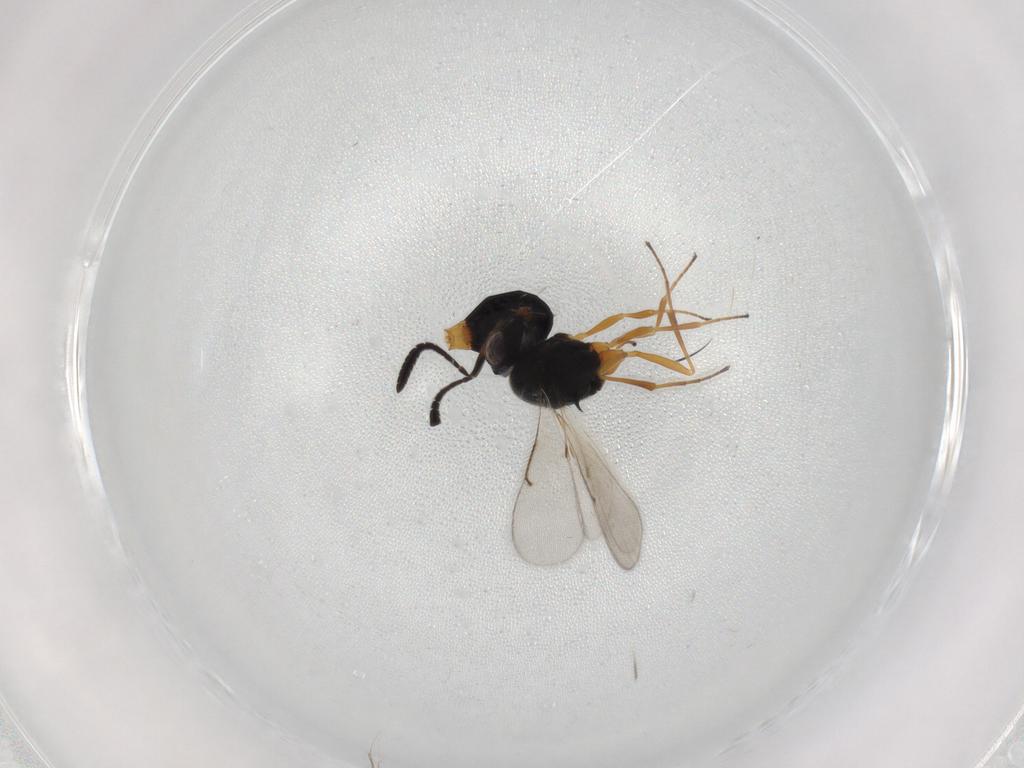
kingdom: Animalia
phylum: Arthropoda
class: Insecta
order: Hymenoptera
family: Scelionidae
